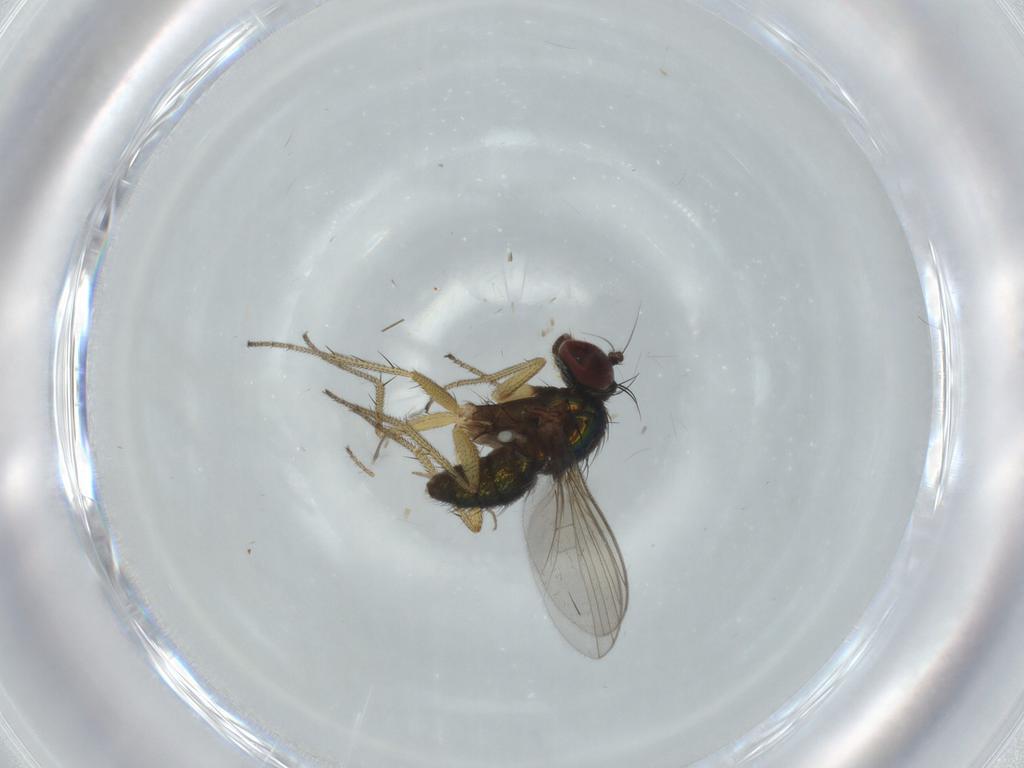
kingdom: Animalia
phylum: Arthropoda
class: Insecta
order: Diptera
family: Dolichopodidae
